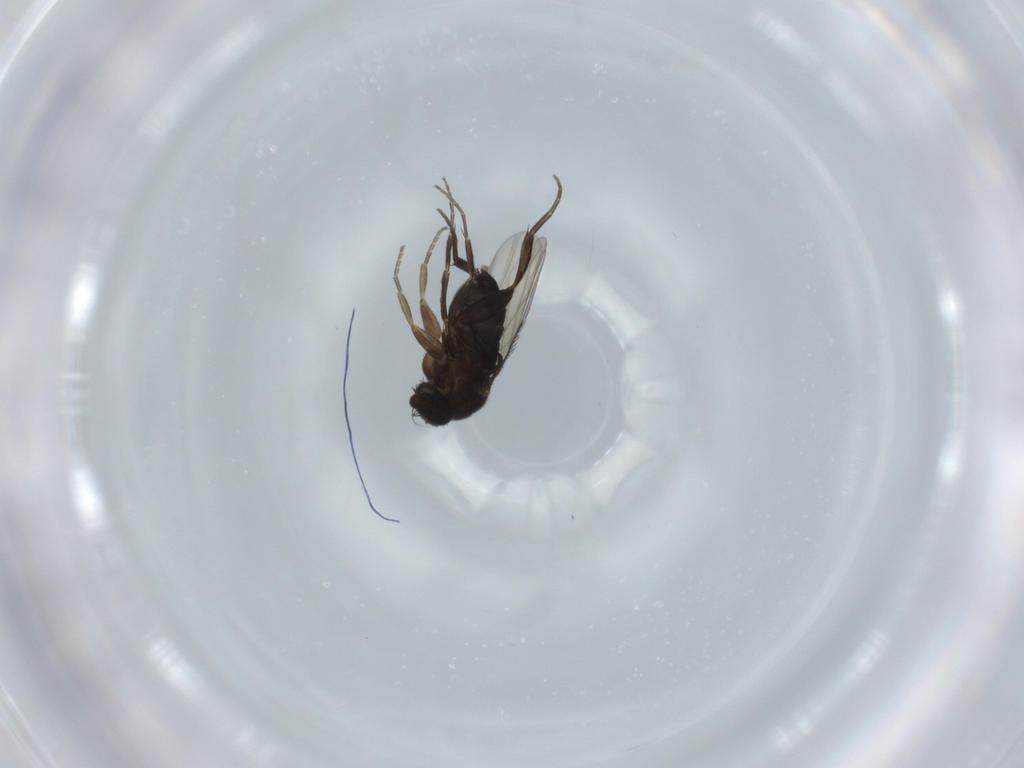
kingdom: Animalia
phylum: Arthropoda
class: Insecta
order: Diptera
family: Phoridae
